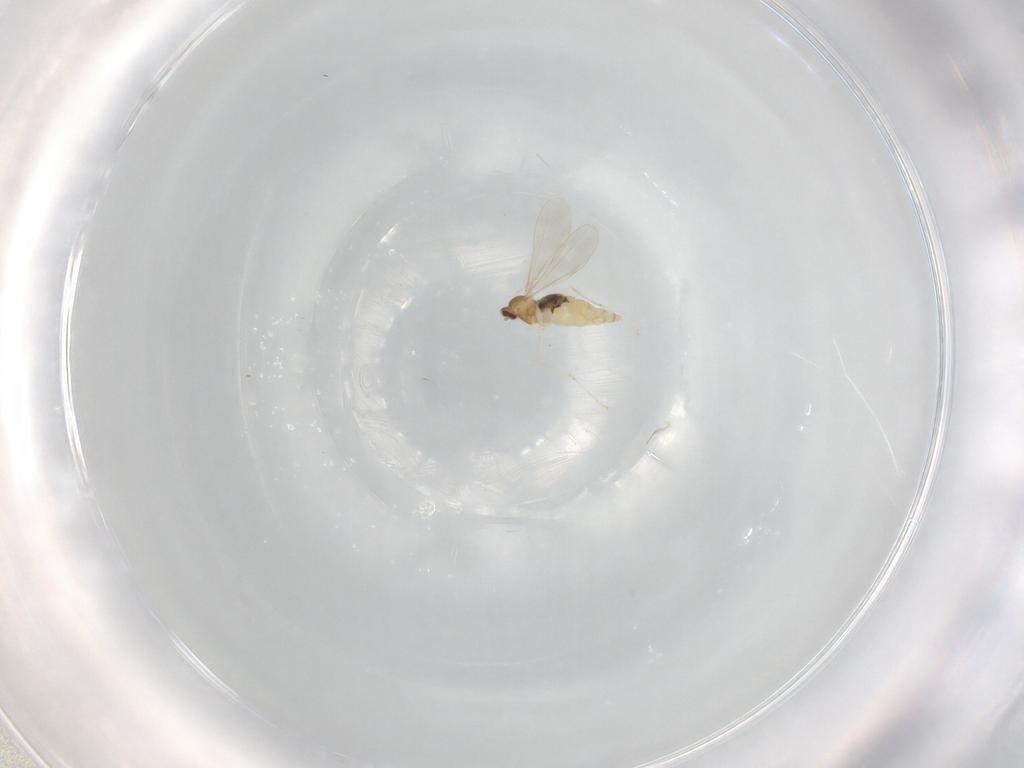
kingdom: Animalia
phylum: Arthropoda
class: Insecta
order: Diptera
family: Cecidomyiidae
